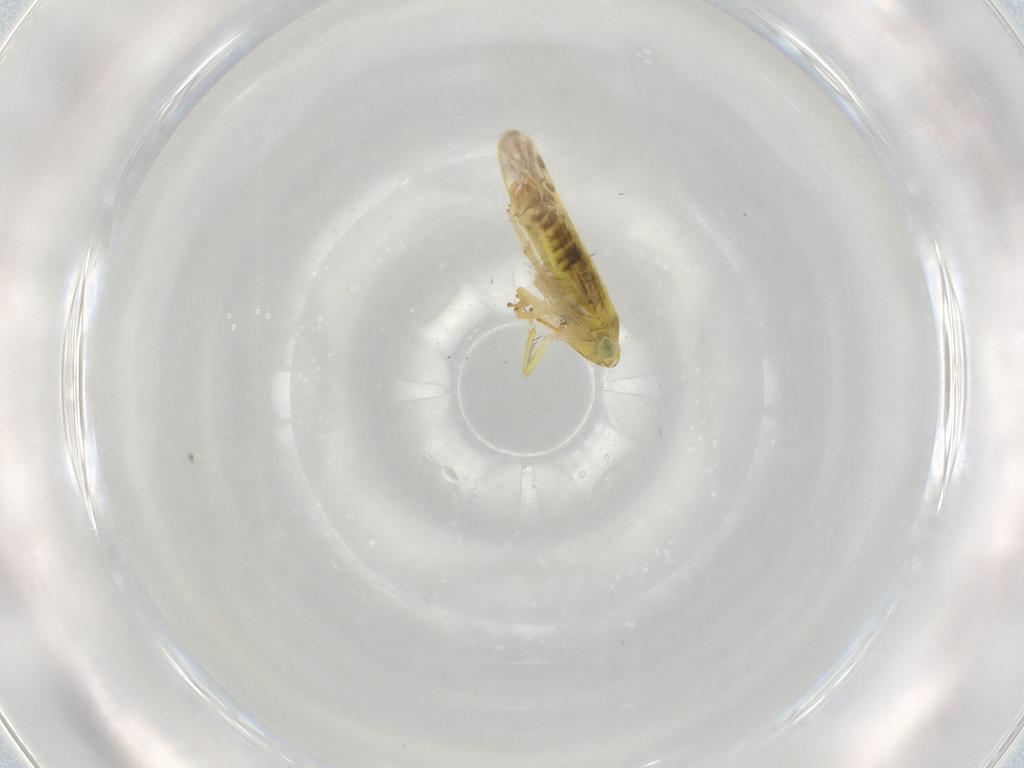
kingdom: Animalia
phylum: Arthropoda
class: Insecta
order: Hemiptera
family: Cicadellidae
